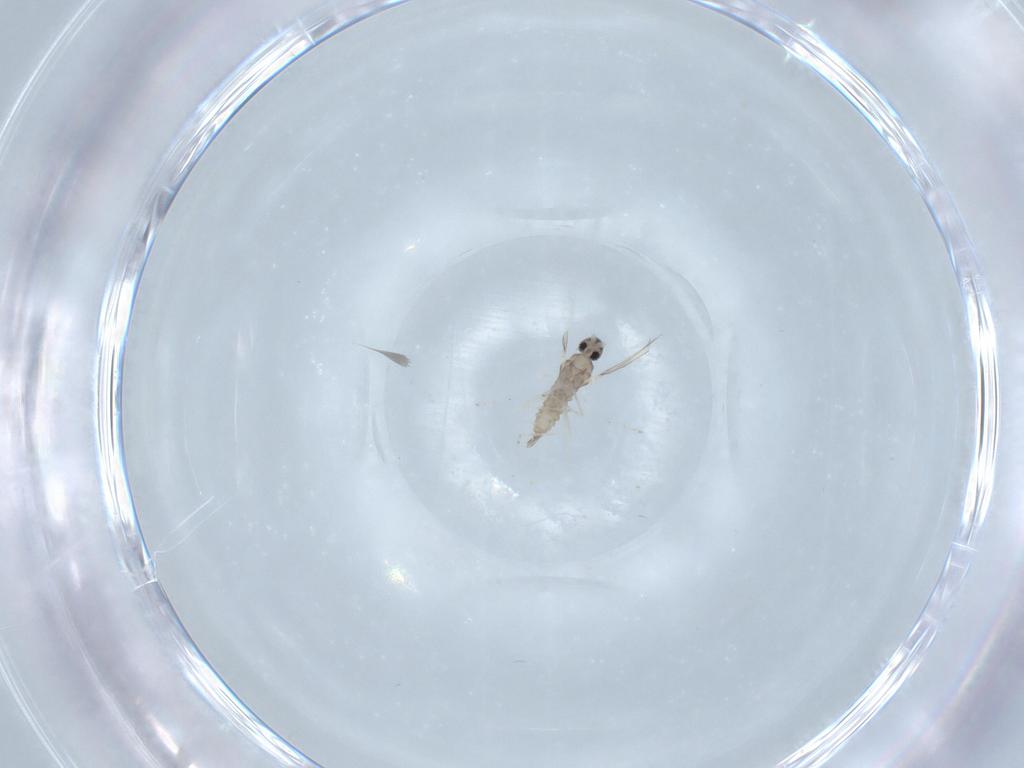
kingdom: Animalia
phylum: Arthropoda
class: Insecta
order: Diptera
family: Cecidomyiidae
